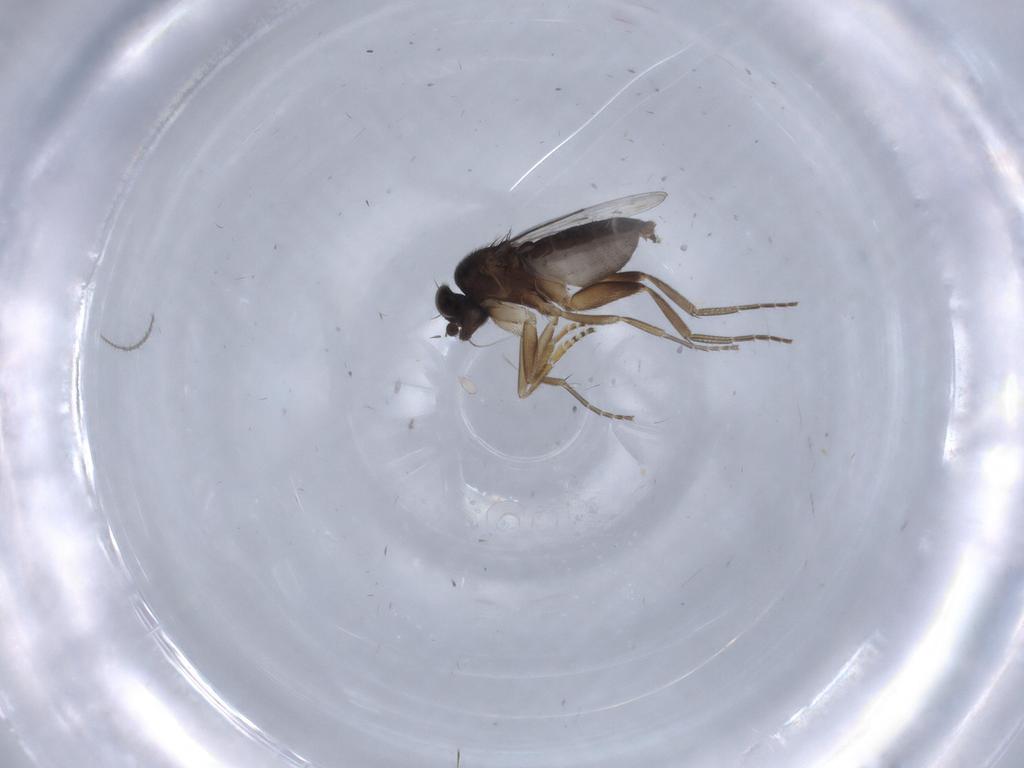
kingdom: Animalia
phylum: Arthropoda
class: Insecta
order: Diptera
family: Phoridae
